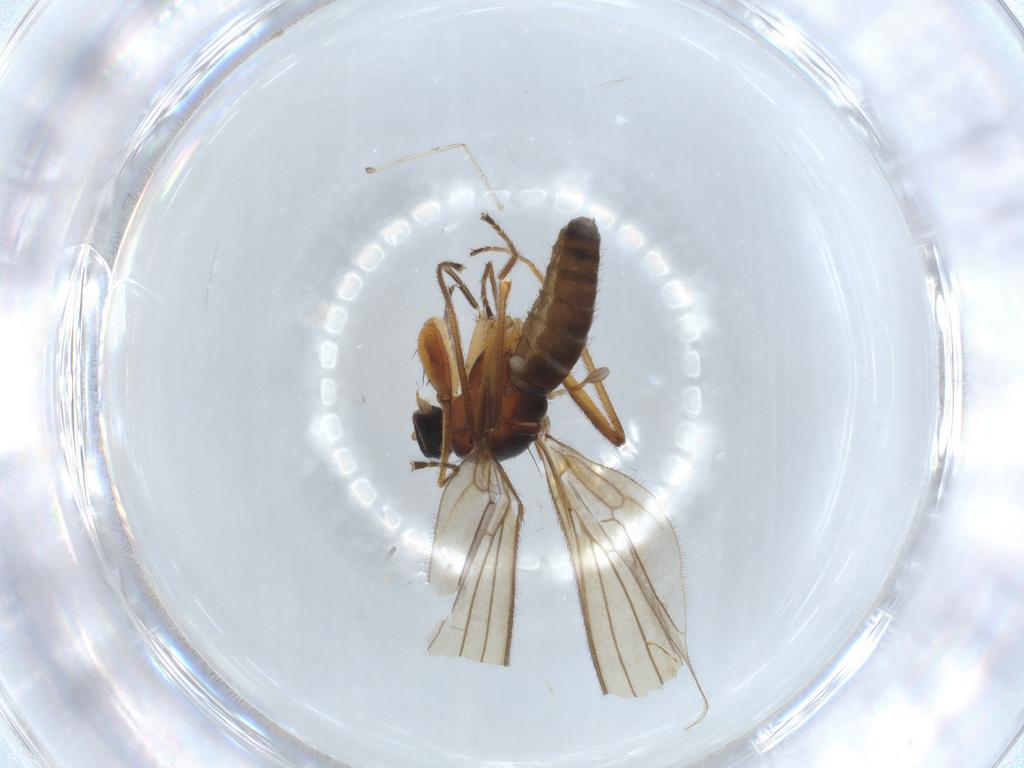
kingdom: Animalia
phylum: Arthropoda
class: Insecta
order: Diptera
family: Empididae
